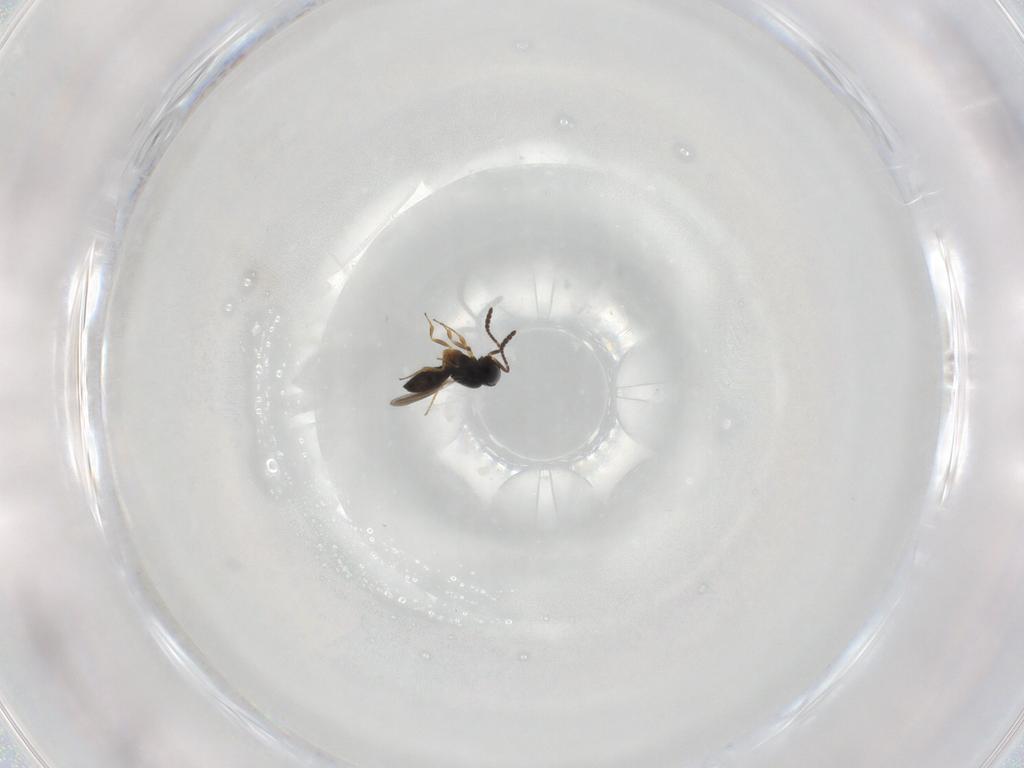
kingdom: Animalia
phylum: Arthropoda
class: Insecta
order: Hymenoptera
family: Scelionidae
